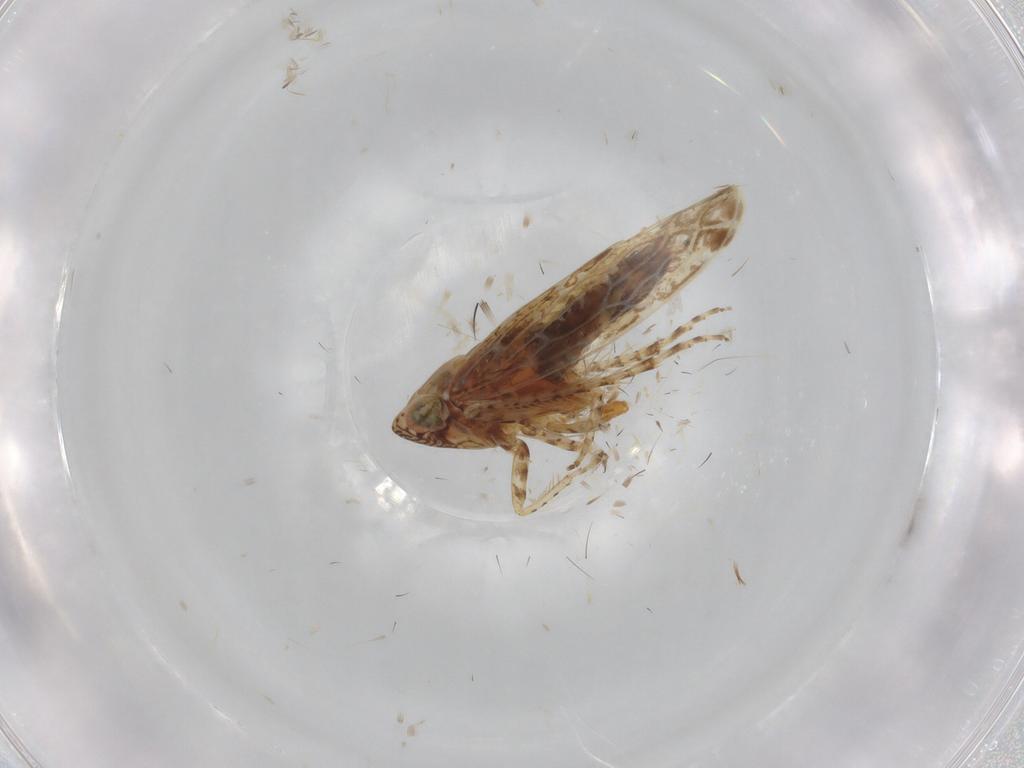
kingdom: Animalia
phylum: Arthropoda
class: Insecta
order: Hemiptera
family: Cicadellidae
